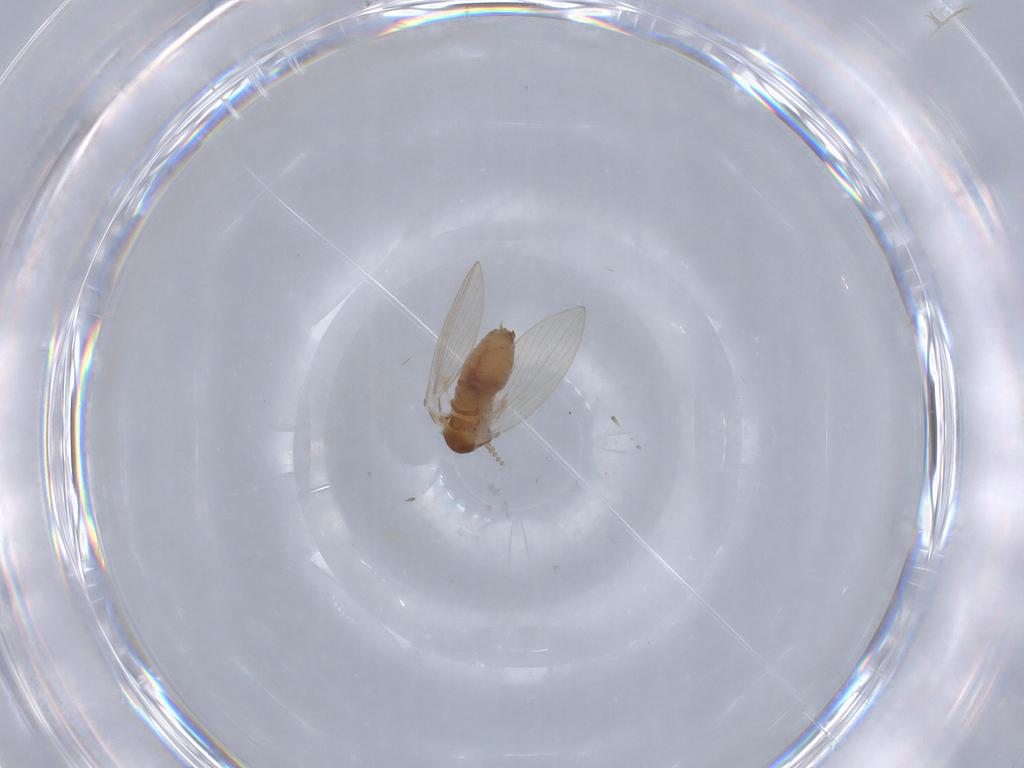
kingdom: Animalia
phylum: Arthropoda
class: Insecta
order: Diptera
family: Psychodidae
